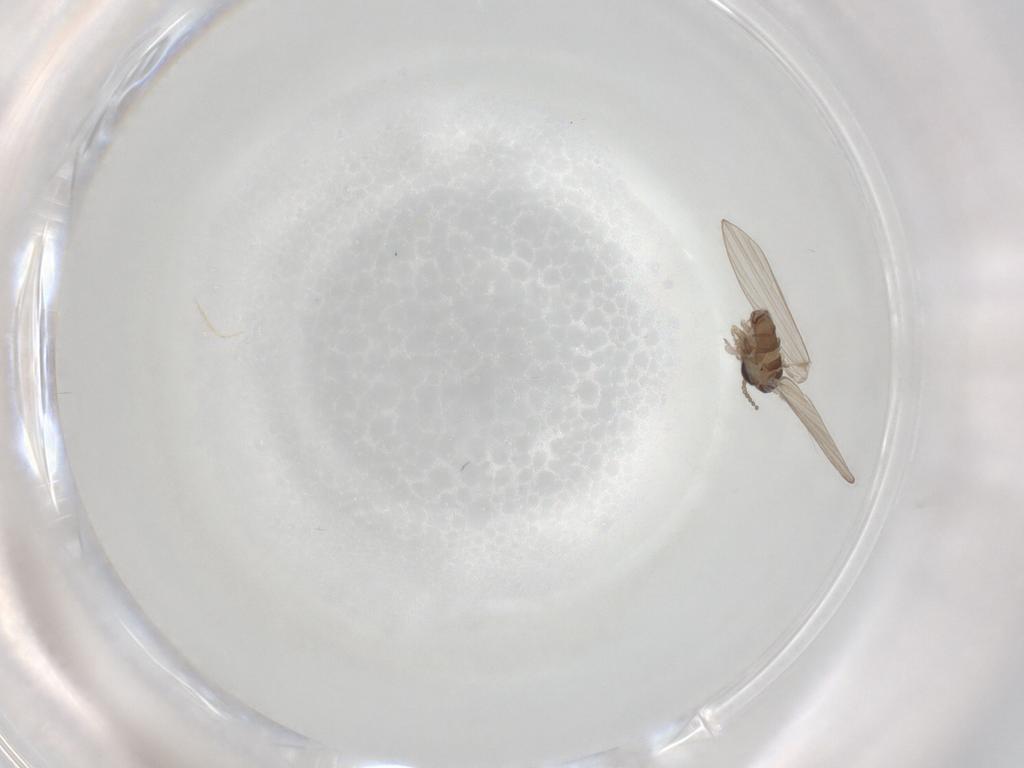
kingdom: Animalia
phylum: Arthropoda
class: Insecta
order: Diptera
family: Psychodidae
